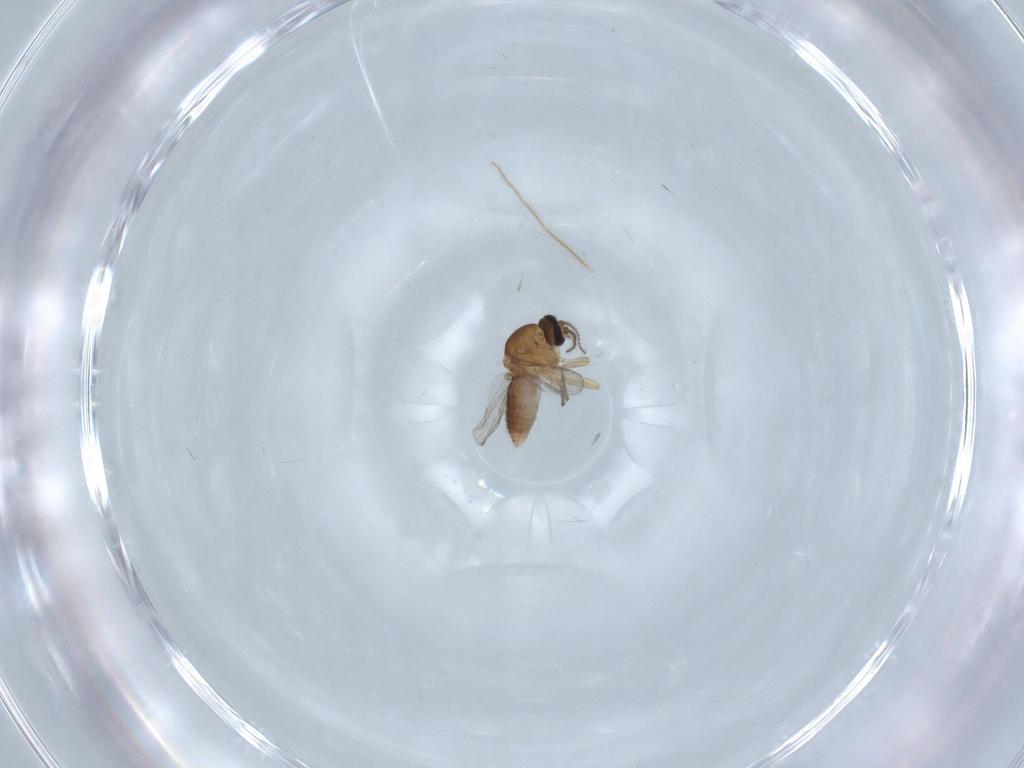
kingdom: Animalia
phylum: Arthropoda
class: Insecta
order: Diptera
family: Ceratopogonidae
